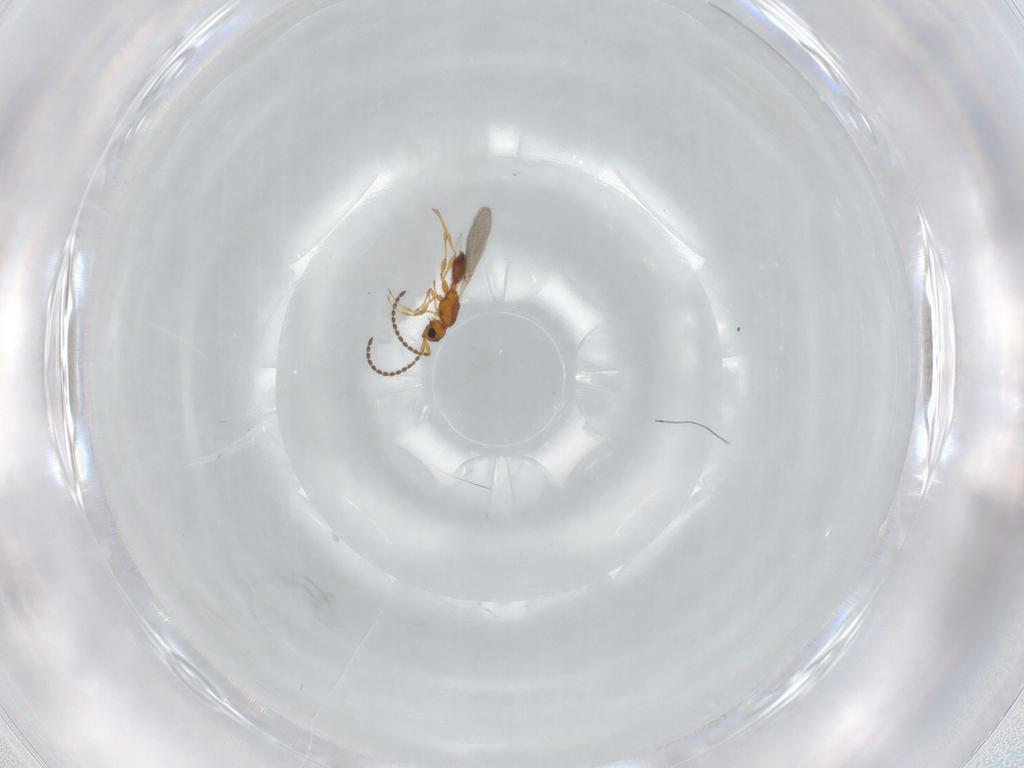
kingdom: Animalia
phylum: Arthropoda
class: Insecta
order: Hymenoptera
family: Diapriidae
